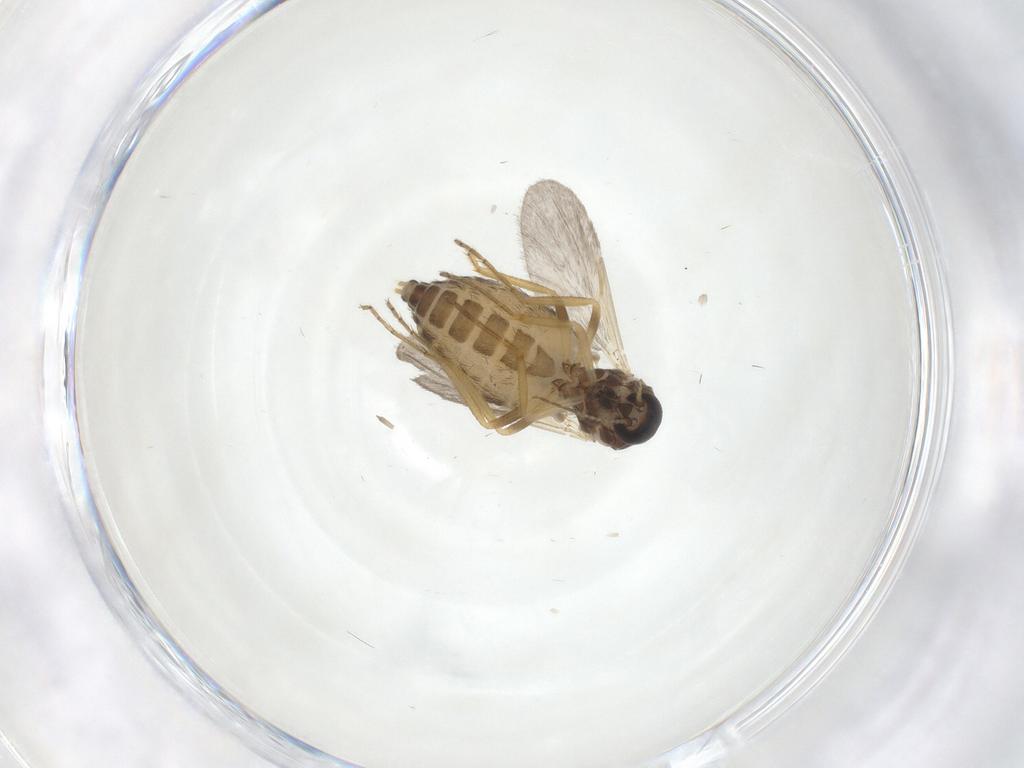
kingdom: Animalia
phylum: Arthropoda
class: Insecta
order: Diptera
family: Ceratopogonidae
